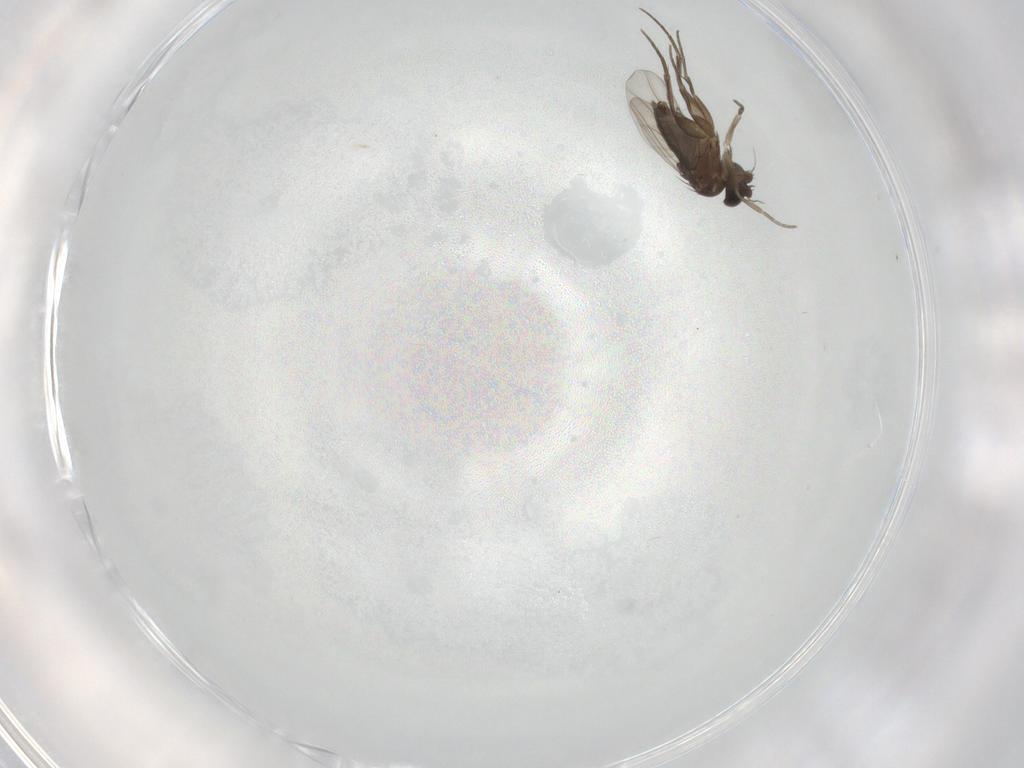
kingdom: Animalia
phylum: Arthropoda
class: Insecta
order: Diptera
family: Phoridae
